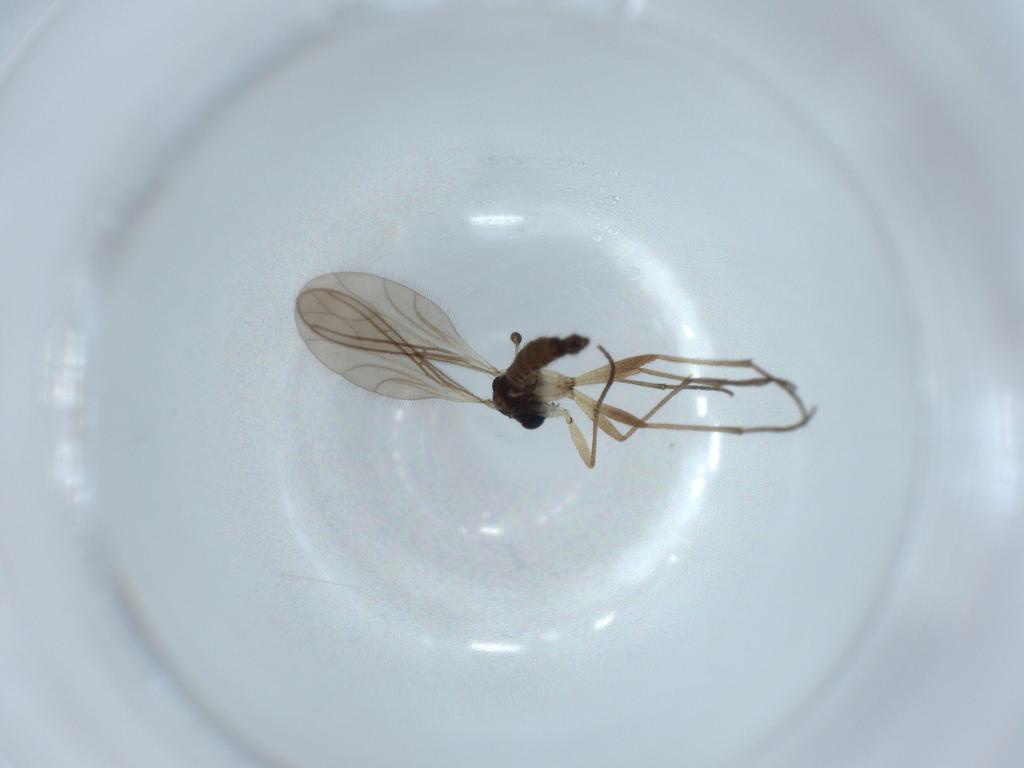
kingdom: Animalia
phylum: Arthropoda
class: Insecta
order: Diptera
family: Sciaridae
